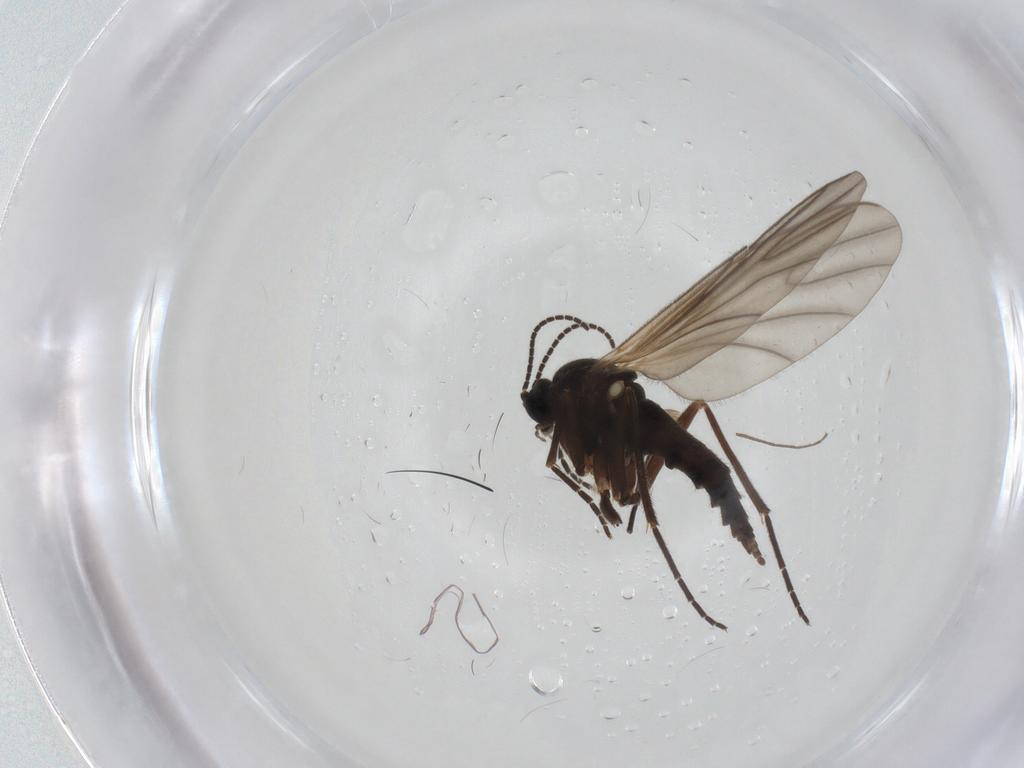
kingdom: Animalia
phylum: Arthropoda
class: Insecta
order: Diptera
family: Sciaridae
